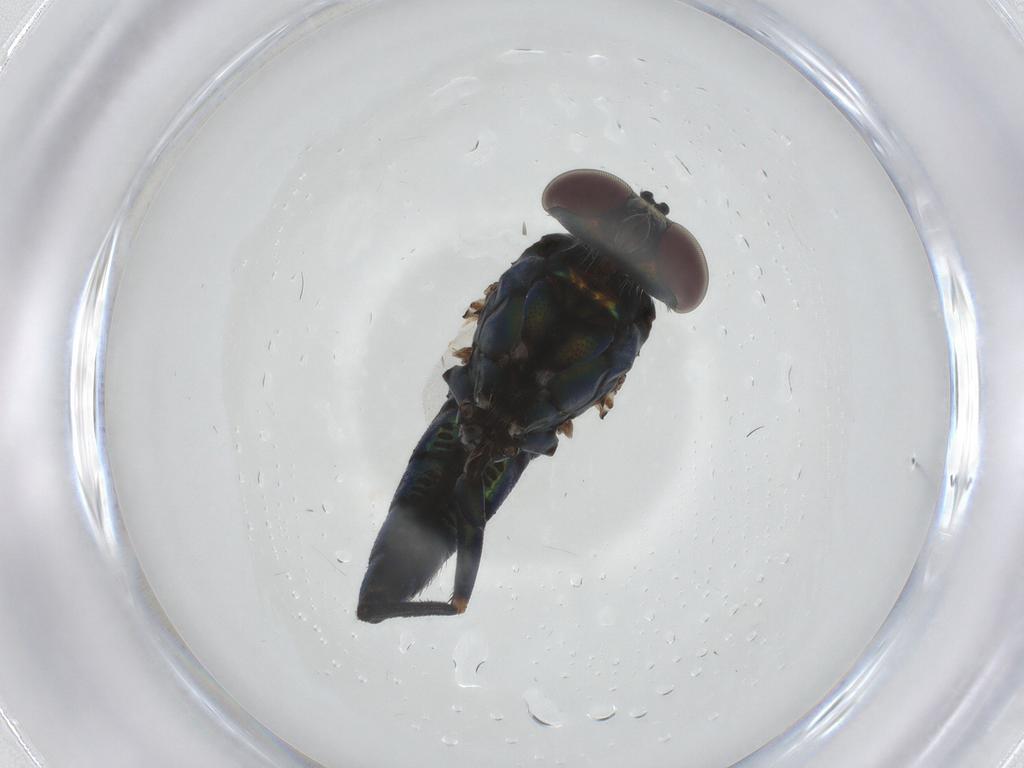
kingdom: Animalia
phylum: Arthropoda
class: Insecta
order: Diptera
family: Dolichopodidae
